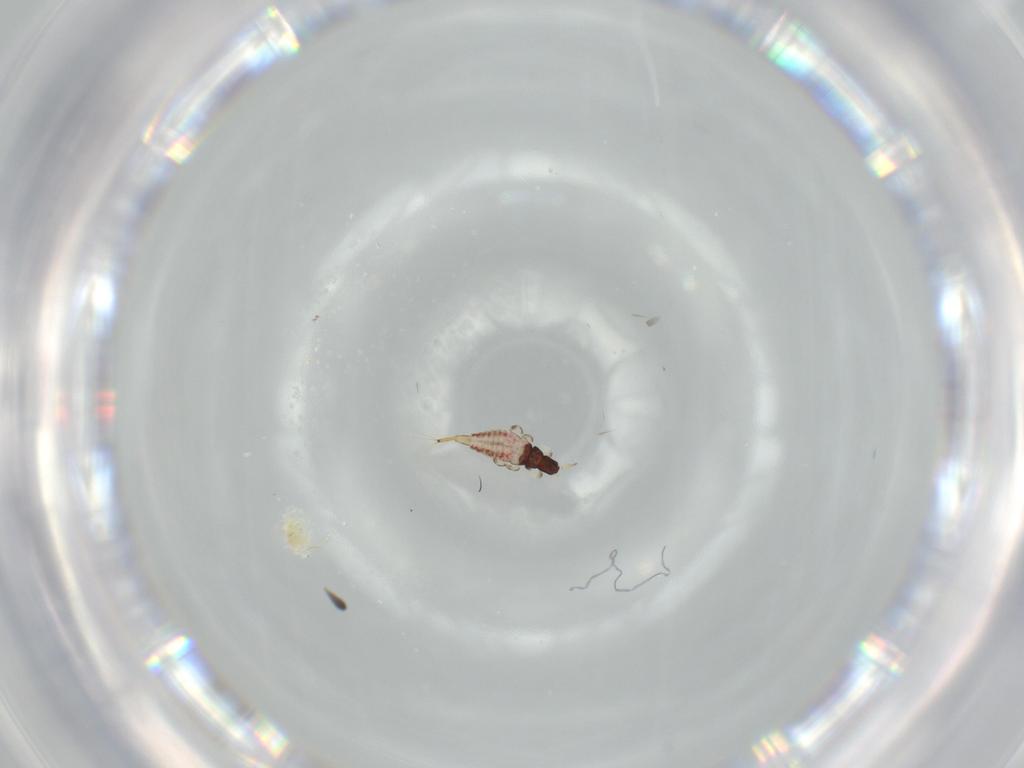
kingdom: Animalia
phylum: Arthropoda
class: Insecta
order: Thysanoptera
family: Phlaeothripidae
